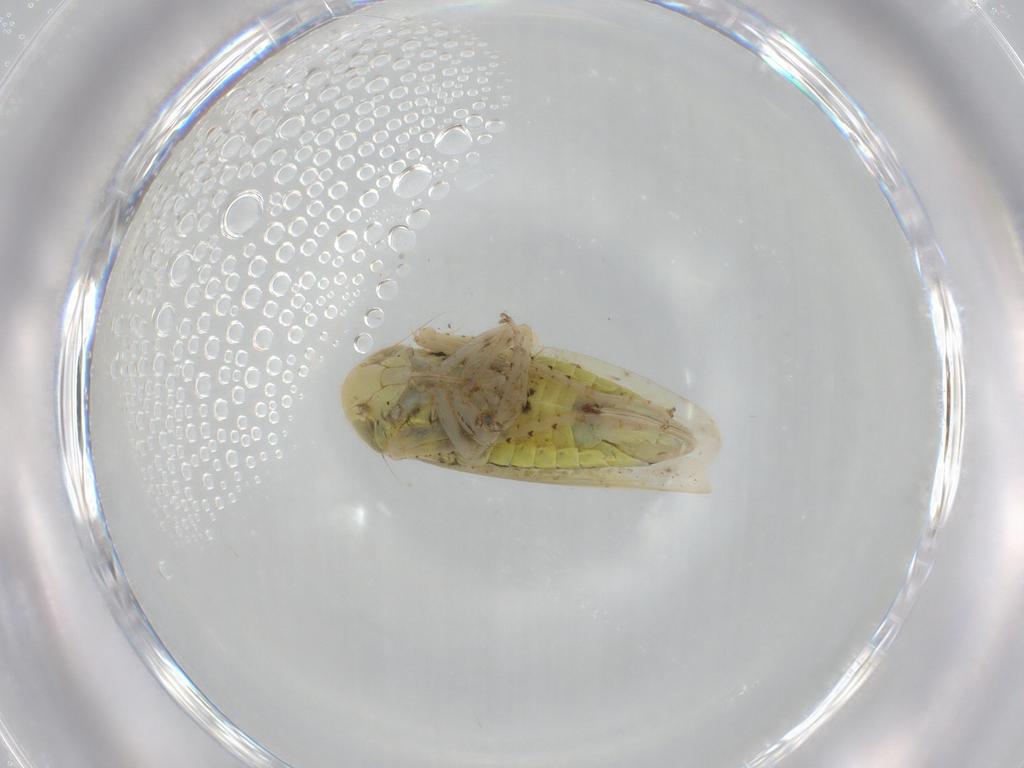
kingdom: Animalia
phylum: Arthropoda
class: Insecta
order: Hemiptera
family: Cicadellidae
